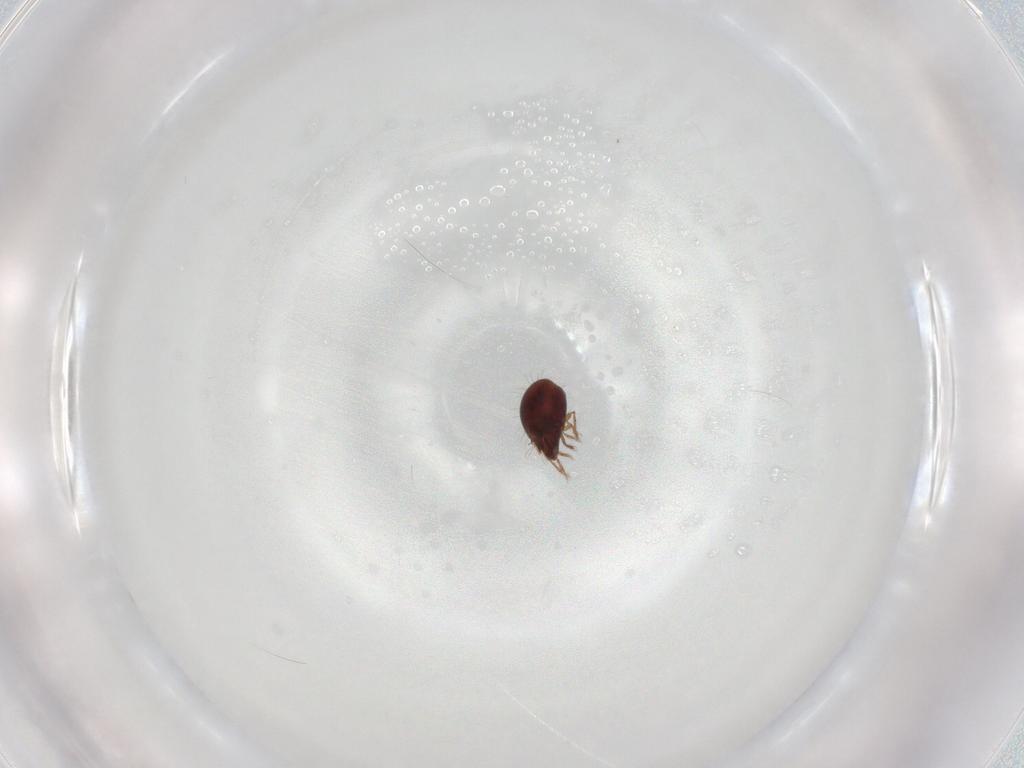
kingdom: Animalia
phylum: Arthropoda
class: Arachnida
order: Sarcoptiformes
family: Humerobatidae
